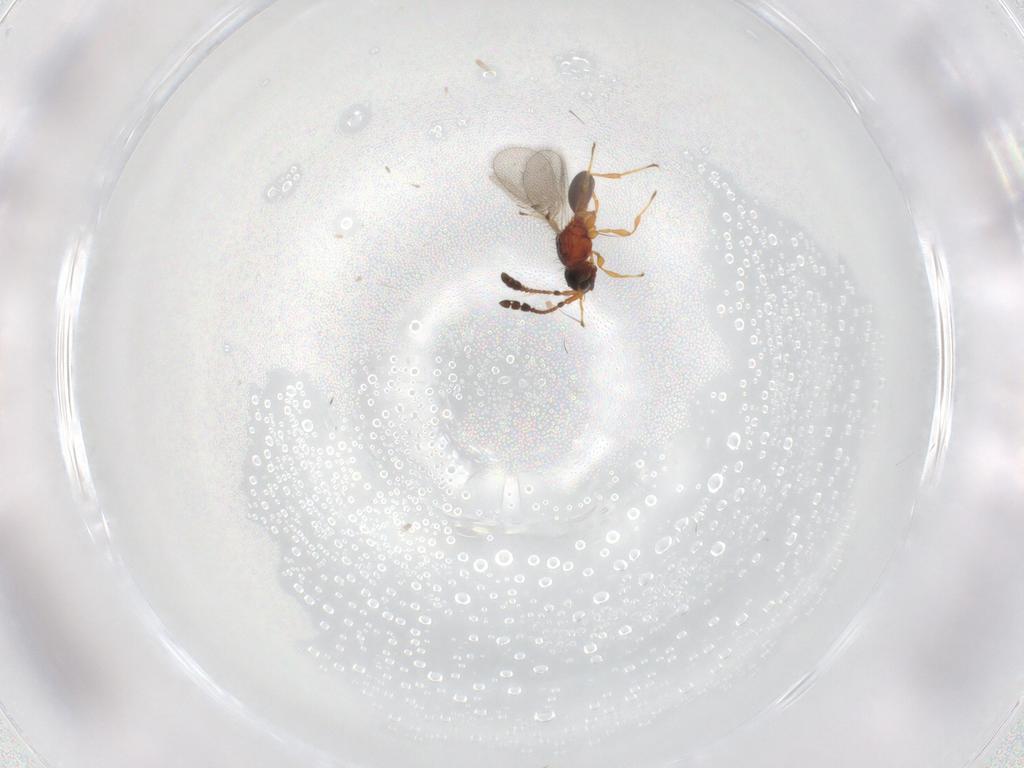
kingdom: Animalia
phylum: Arthropoda
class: Insecta
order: Hymenoptera
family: Diapriidae
